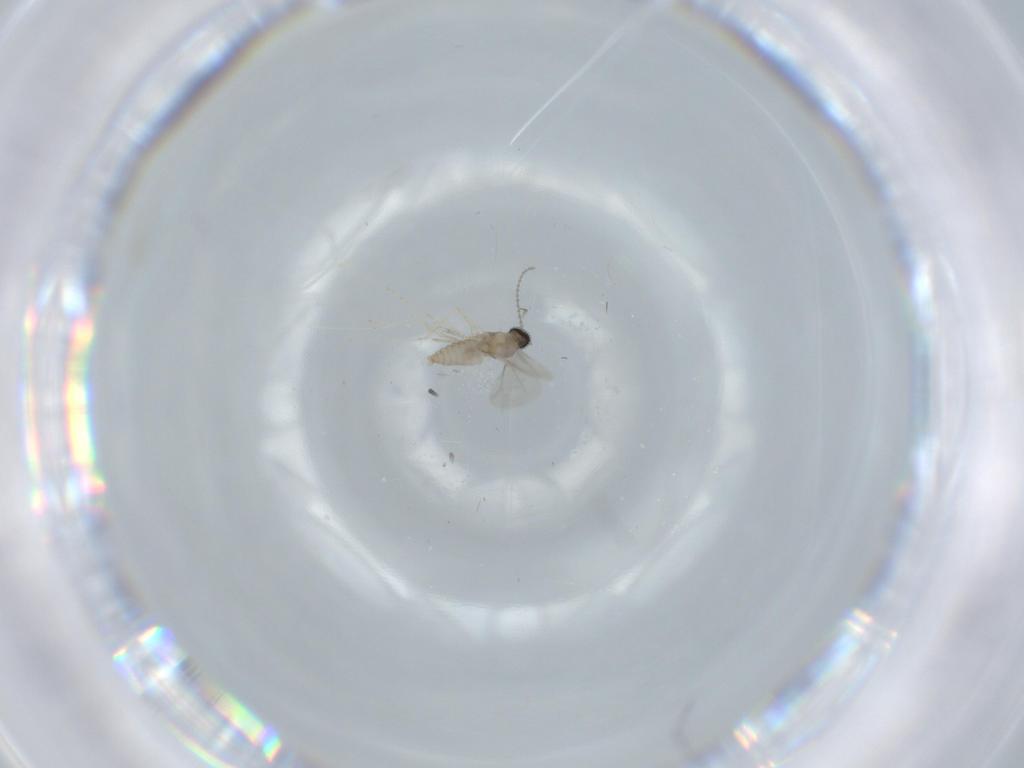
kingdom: Animalia
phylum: Arthropoda
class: Insecta
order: Diptera
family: Cecidomyiidae
